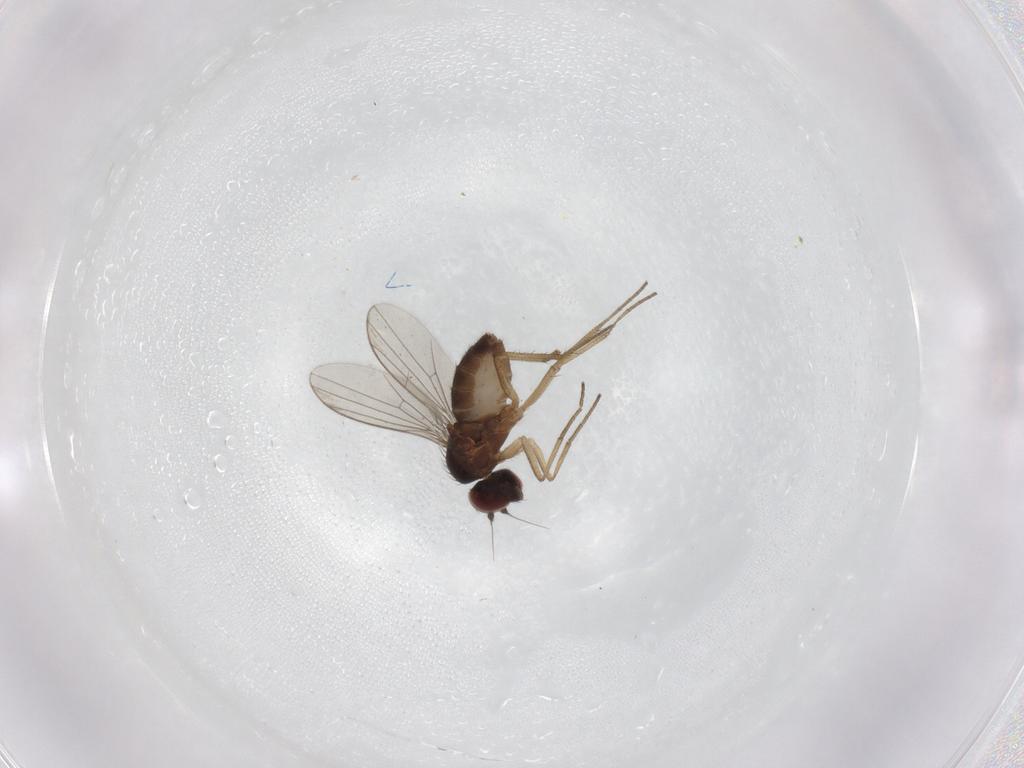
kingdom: Animalia
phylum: Arthropoda
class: Insecta
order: Diptera
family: Dolichopodidae
